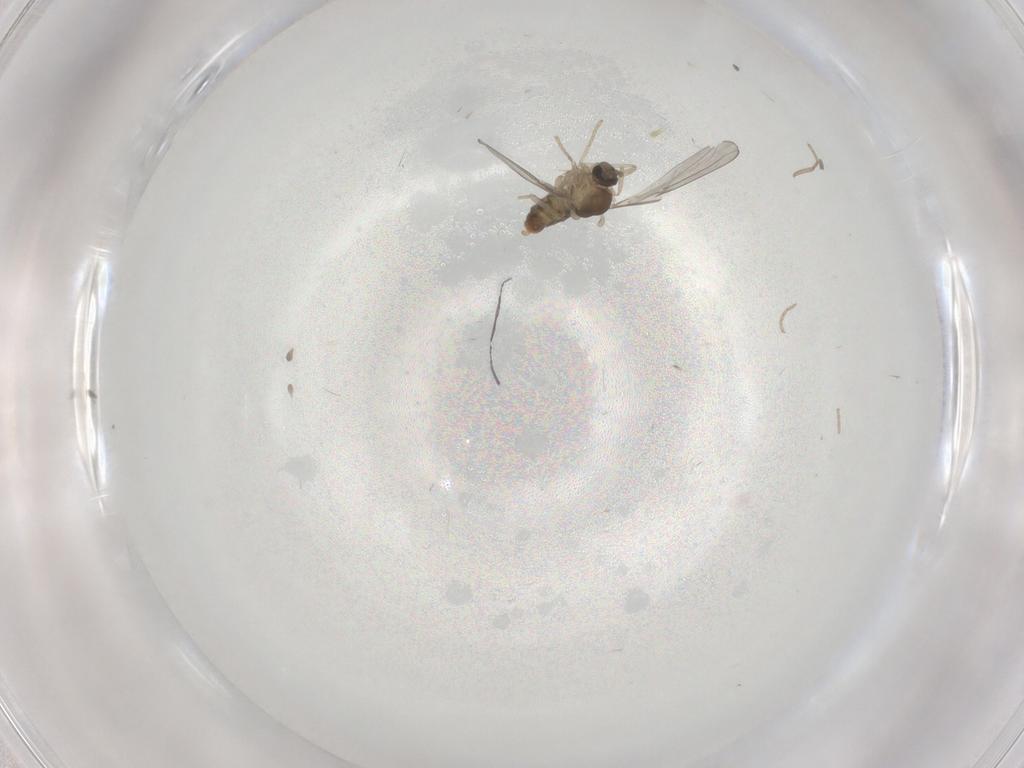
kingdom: Animalia
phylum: Arthropoda
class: Insecta
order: Diptera
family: Cecidomyiidae
